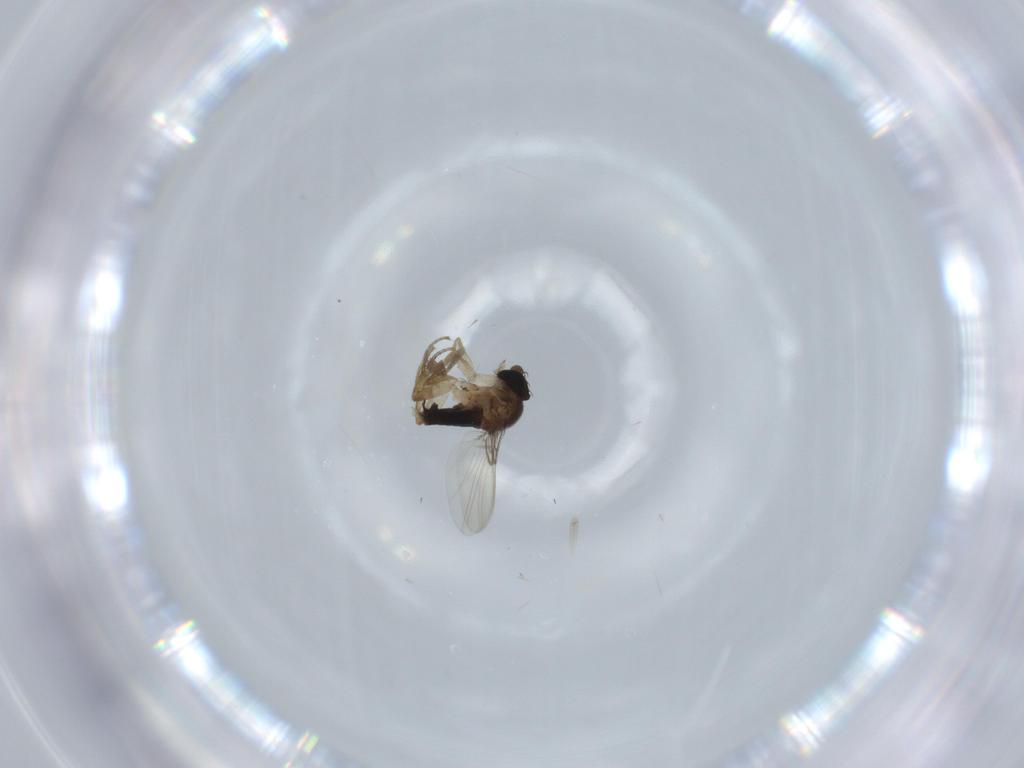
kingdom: Animalia
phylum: Arthropoda
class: Insecta
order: Diptera
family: Phoridae
